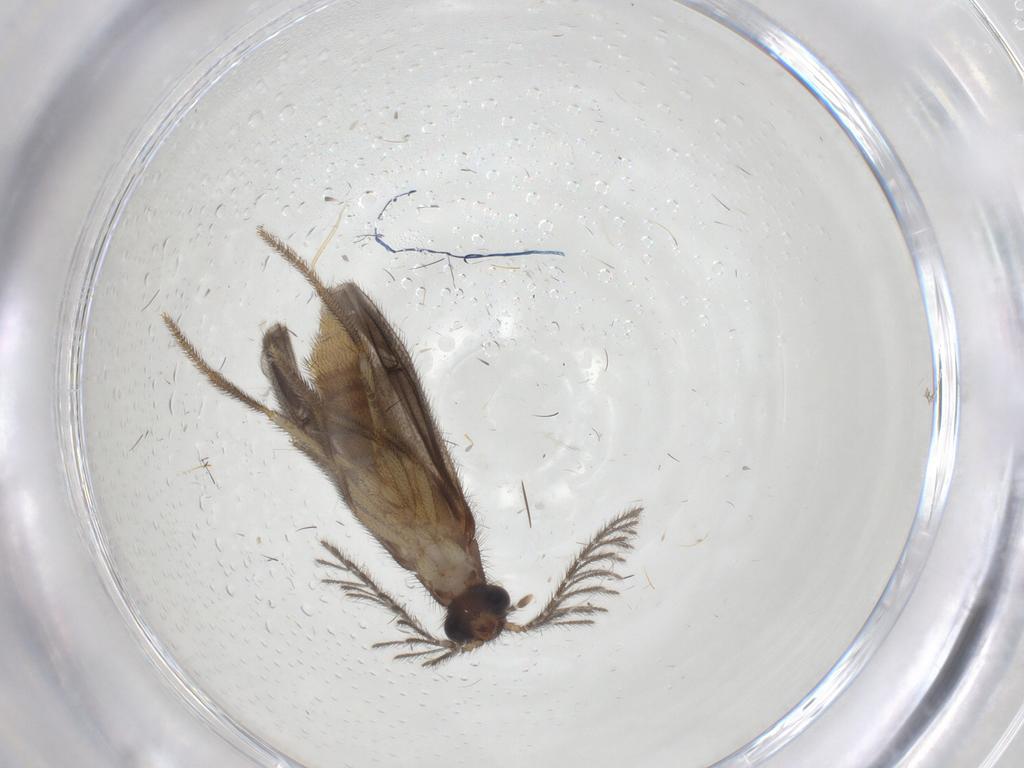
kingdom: Animalia
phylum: Arthropoda
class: Insecta
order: Coleoptera
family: Phengodidae
